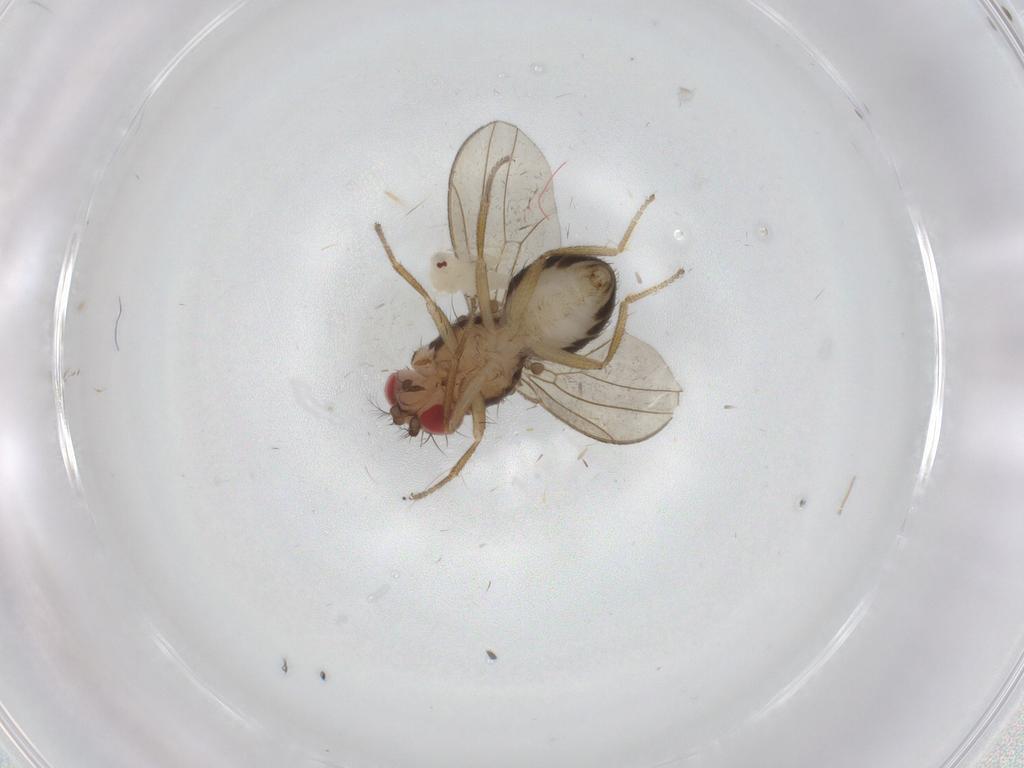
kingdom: Animalia
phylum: Arthropoda
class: Insecta
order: Diptera
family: Drosophilidae
